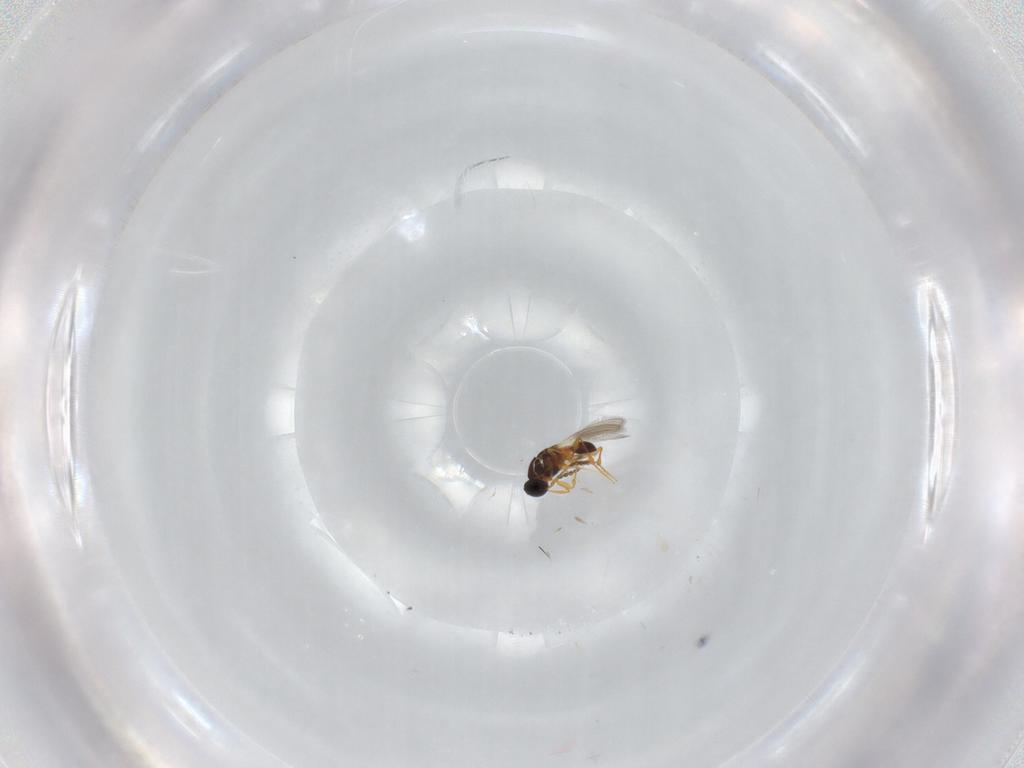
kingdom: Animalia
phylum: Arthropoda
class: Insecta
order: Hymenoptera
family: Platygastridae
